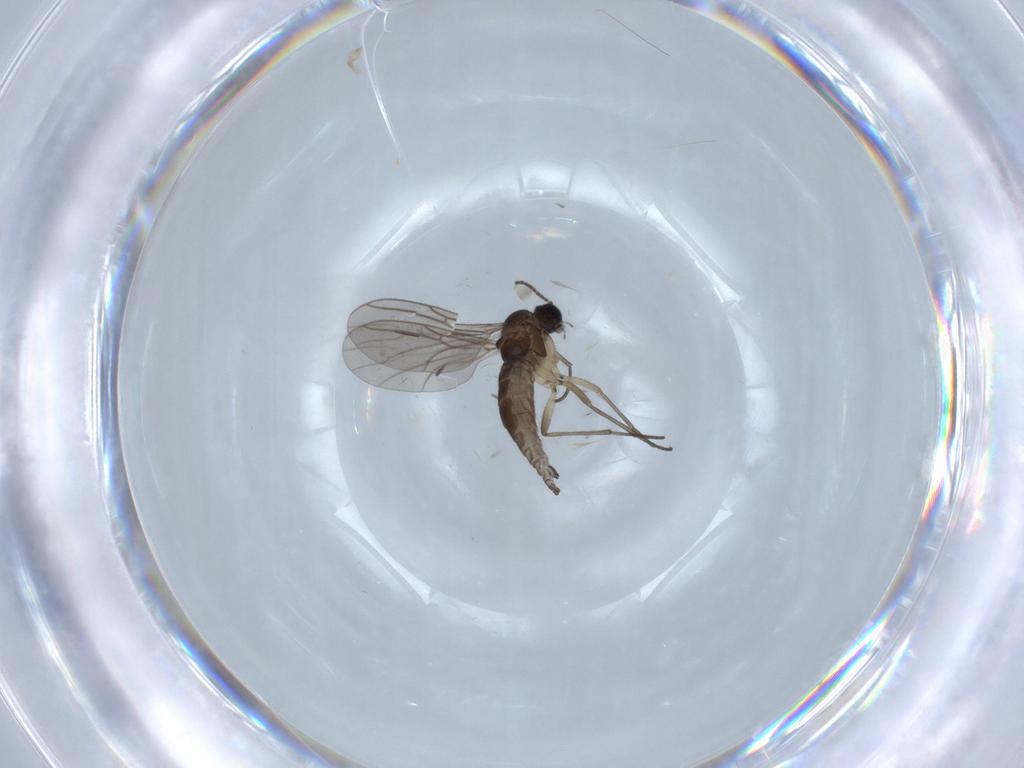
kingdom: Animalia
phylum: Arthropoda
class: Insecta
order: Diptera
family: Sciaridae
